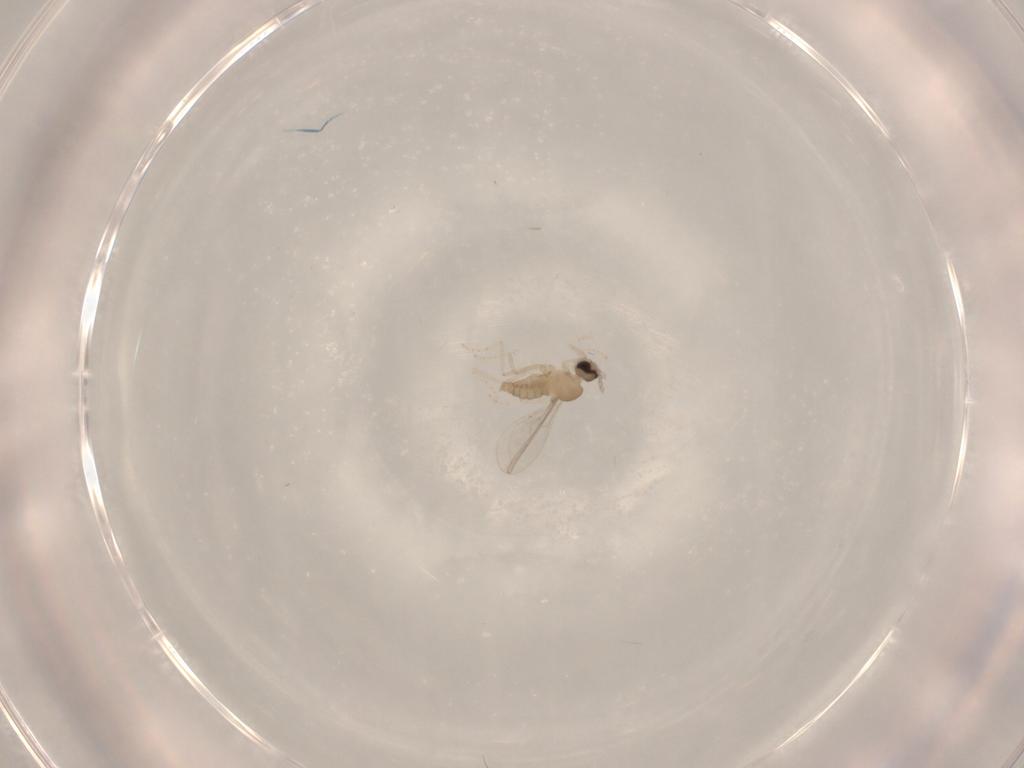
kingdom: Animalia
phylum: Arthropoda
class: Insecta
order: Diptera
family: Cecidomyiidae
